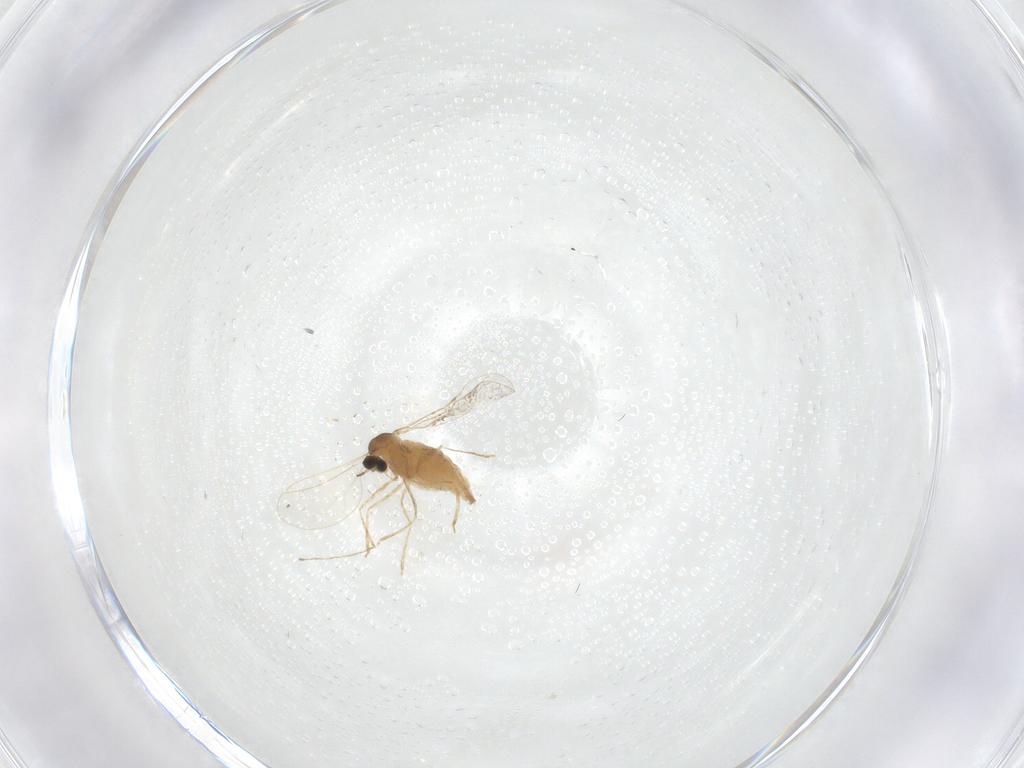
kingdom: Animalia
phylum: Arthropoda
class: Insecta
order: Diptera
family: Cecidomyiidae
